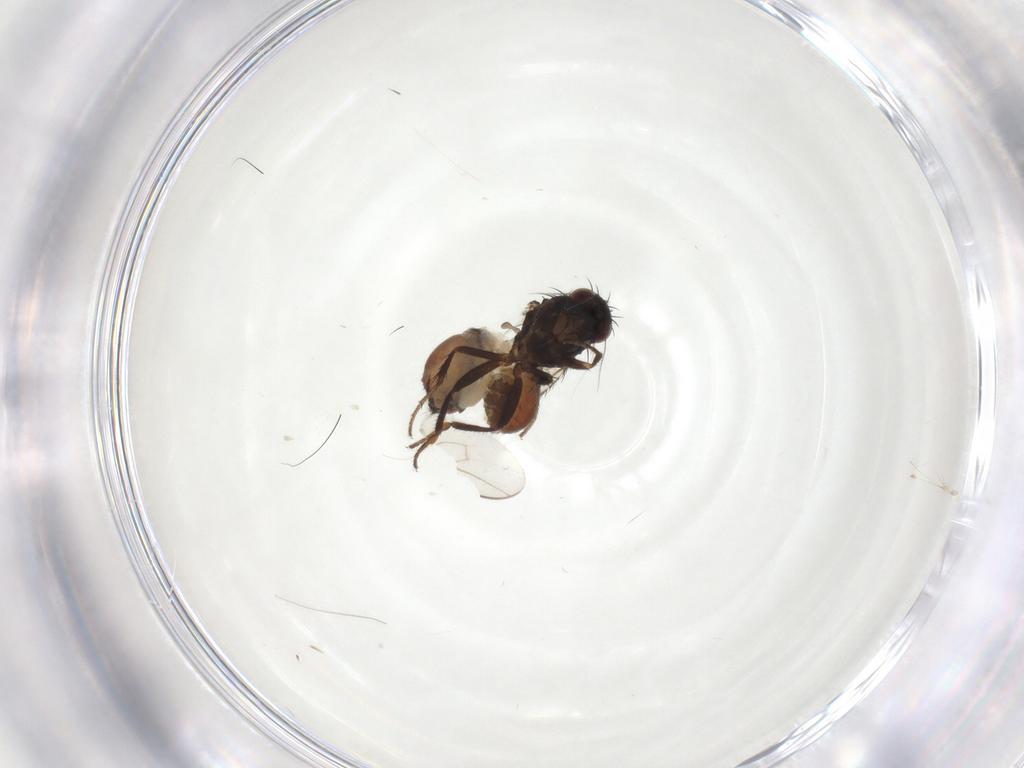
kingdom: Animalia
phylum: Arthropoda
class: Insecta
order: Diptera
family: Sphaeroceridae
